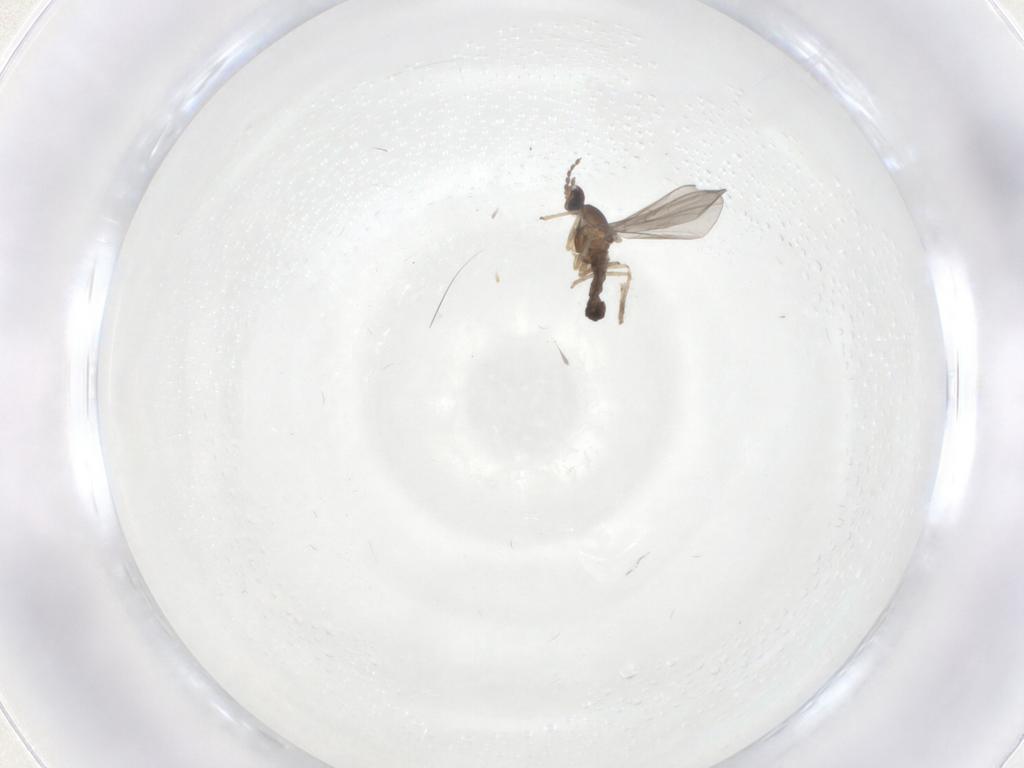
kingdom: Animalia
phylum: Arthropoda
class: Insecta
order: Diptera
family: Cecidomyiidae
